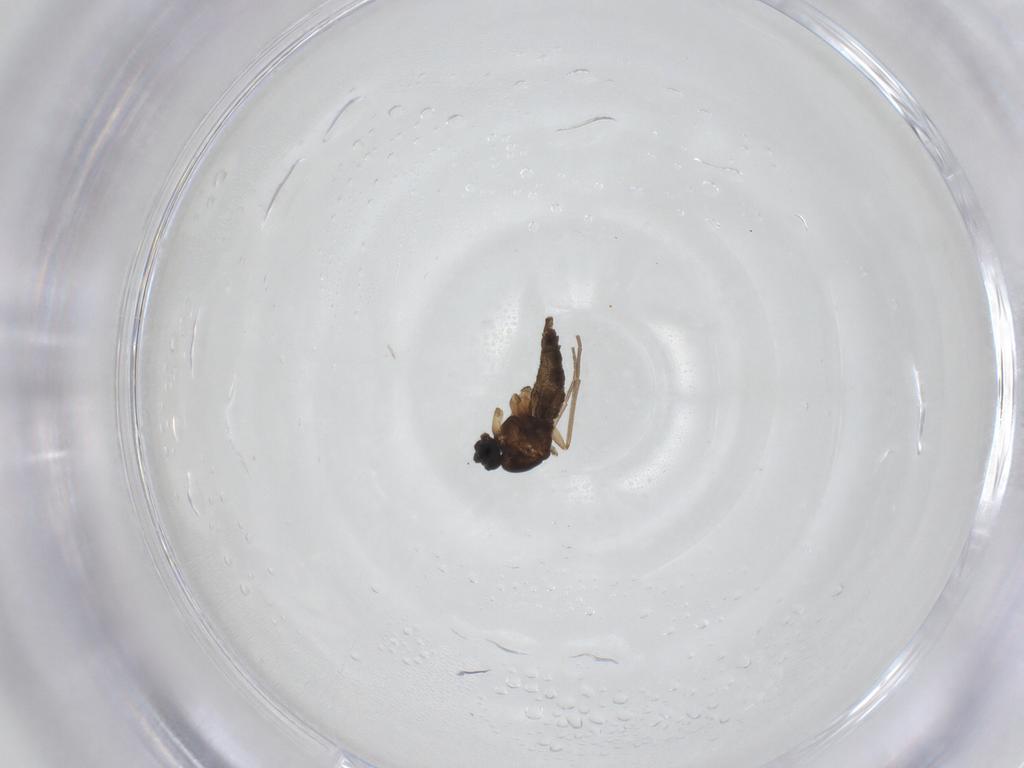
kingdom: Animalia
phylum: Arthropoda
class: Insecta
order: Diptera
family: Sciaridae
